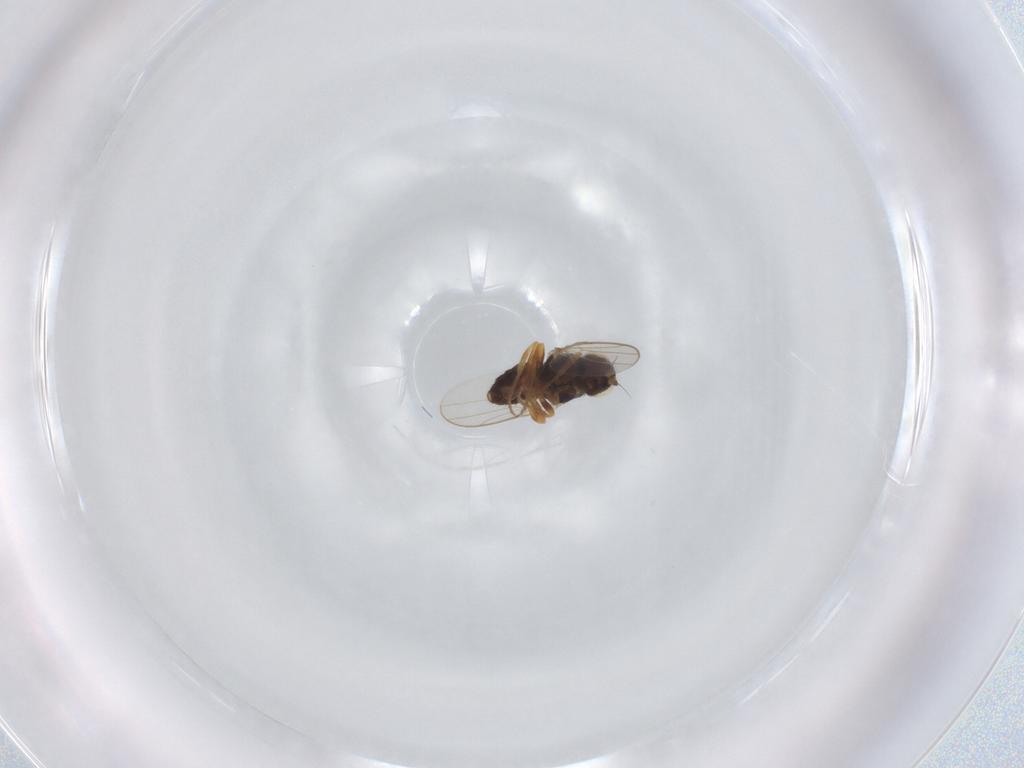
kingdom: Animalia
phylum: Arthropoda
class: Insecta
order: Diptera
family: Chloropidae
